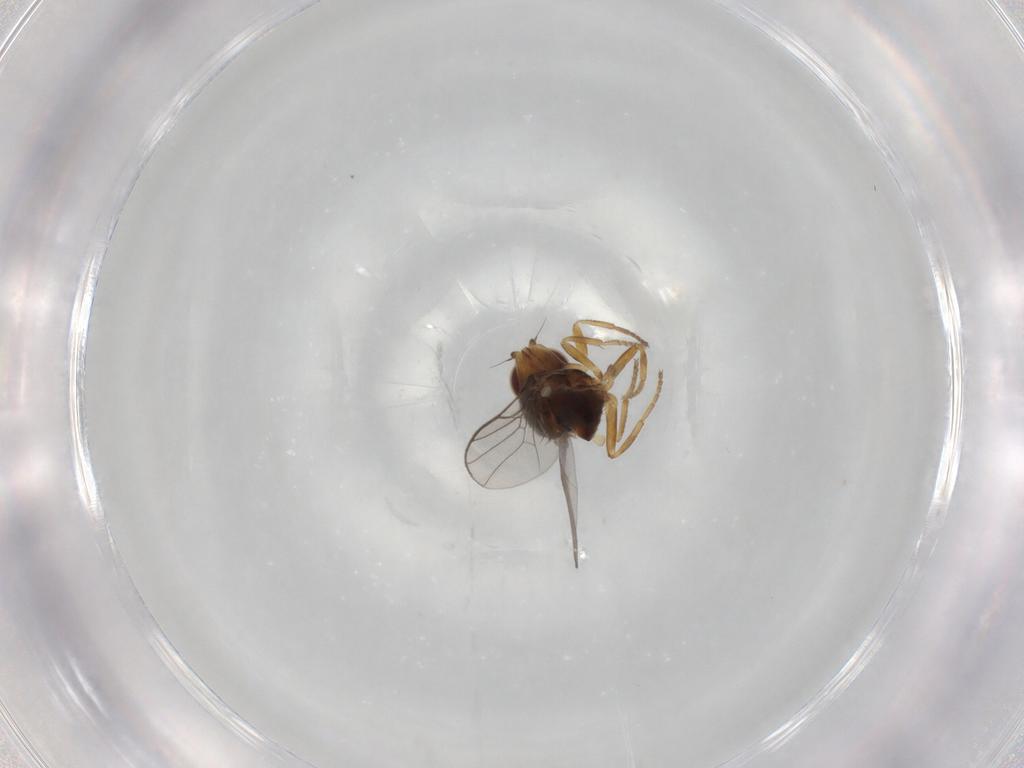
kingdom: Animalia
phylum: Arthropoda
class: Insecta
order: Diptera
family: Chloropidae
